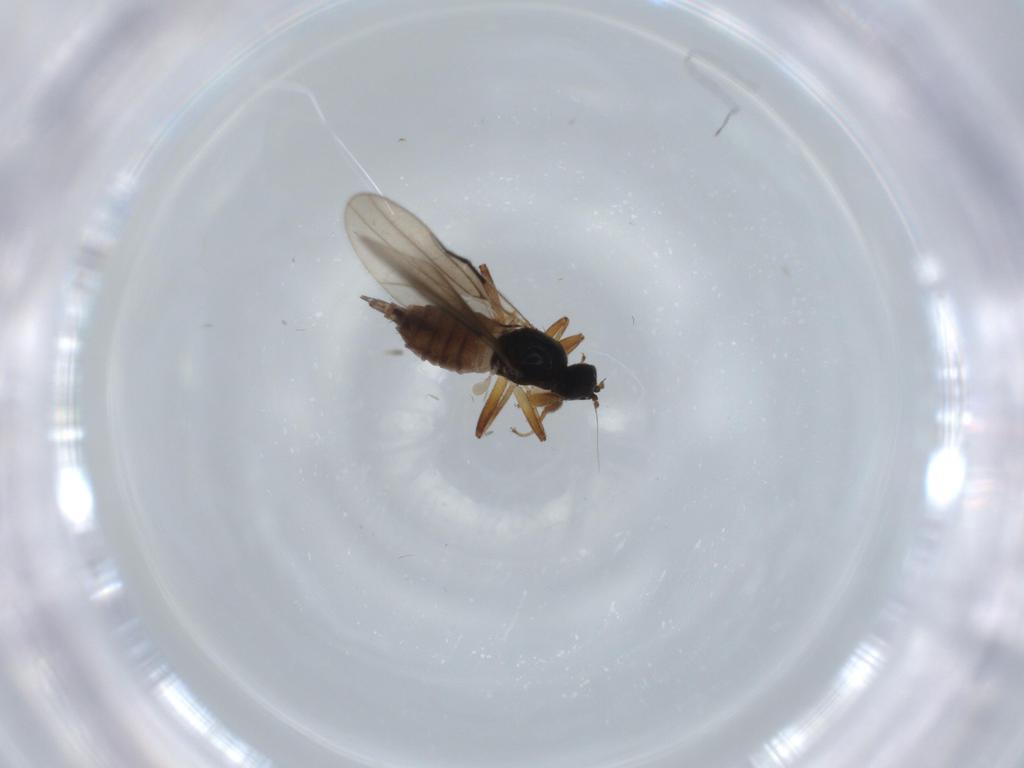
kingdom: Animalia
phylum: Arthropoda
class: Insecta
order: Diptera
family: Hybotidae
